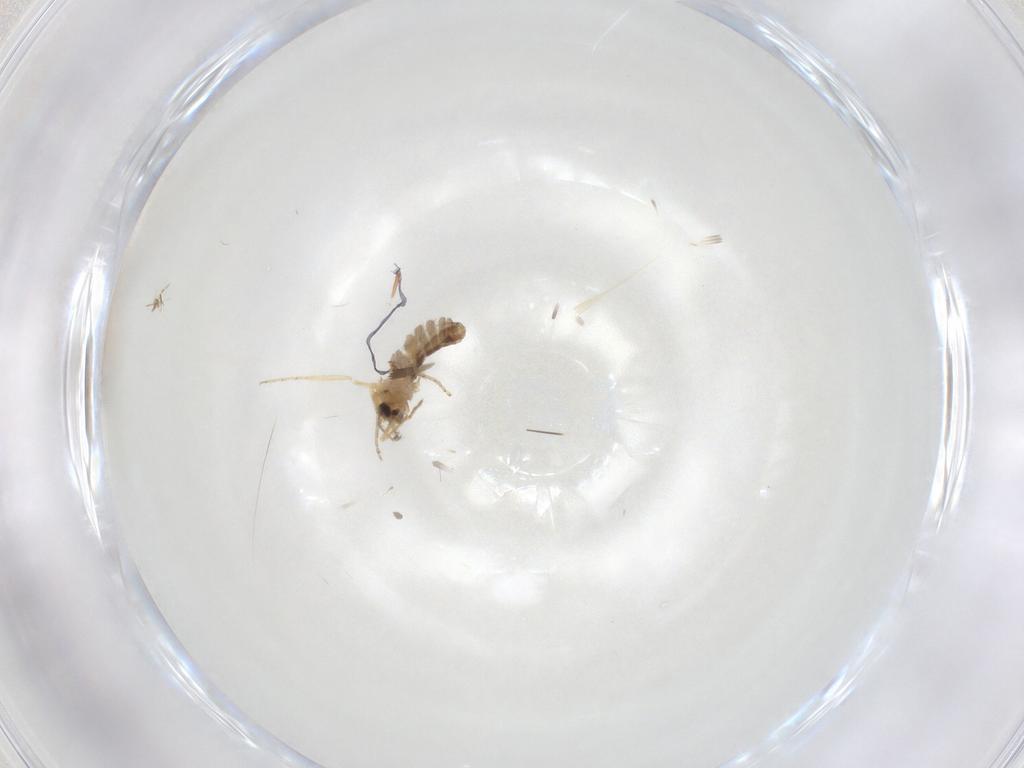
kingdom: Animalia
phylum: Arthropoda
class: Insecta
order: Diptera
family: Ceratopogonidae
